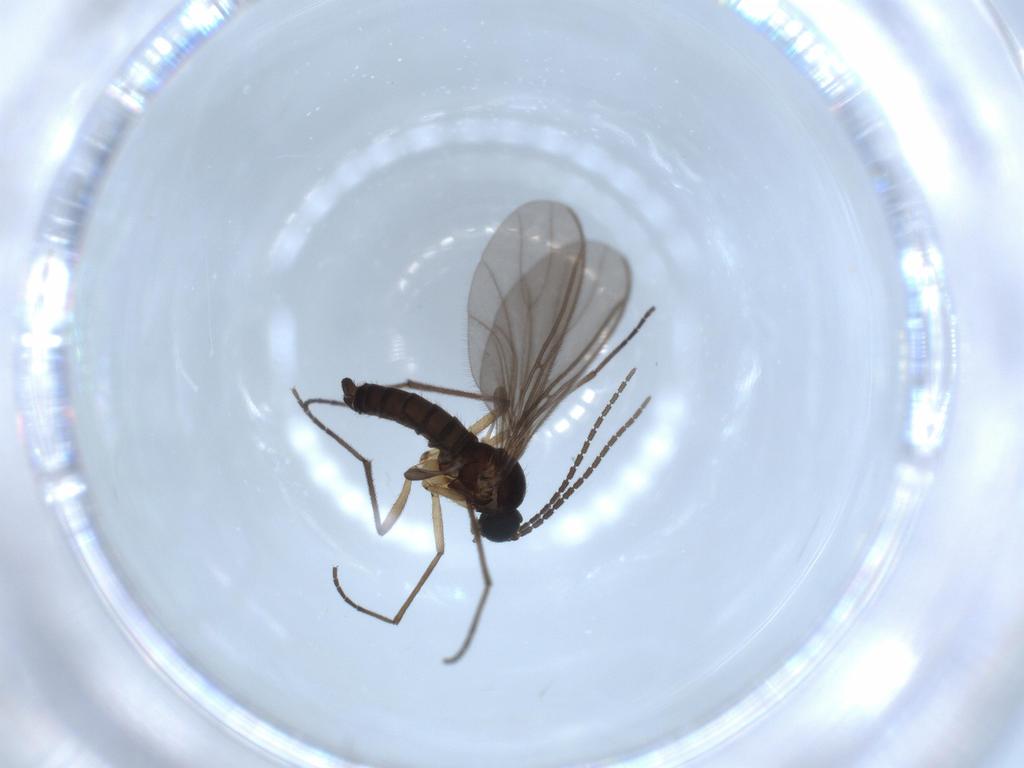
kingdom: Animalia
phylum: Arthropoda
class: Insecta
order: Diptera
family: Sciaridae
